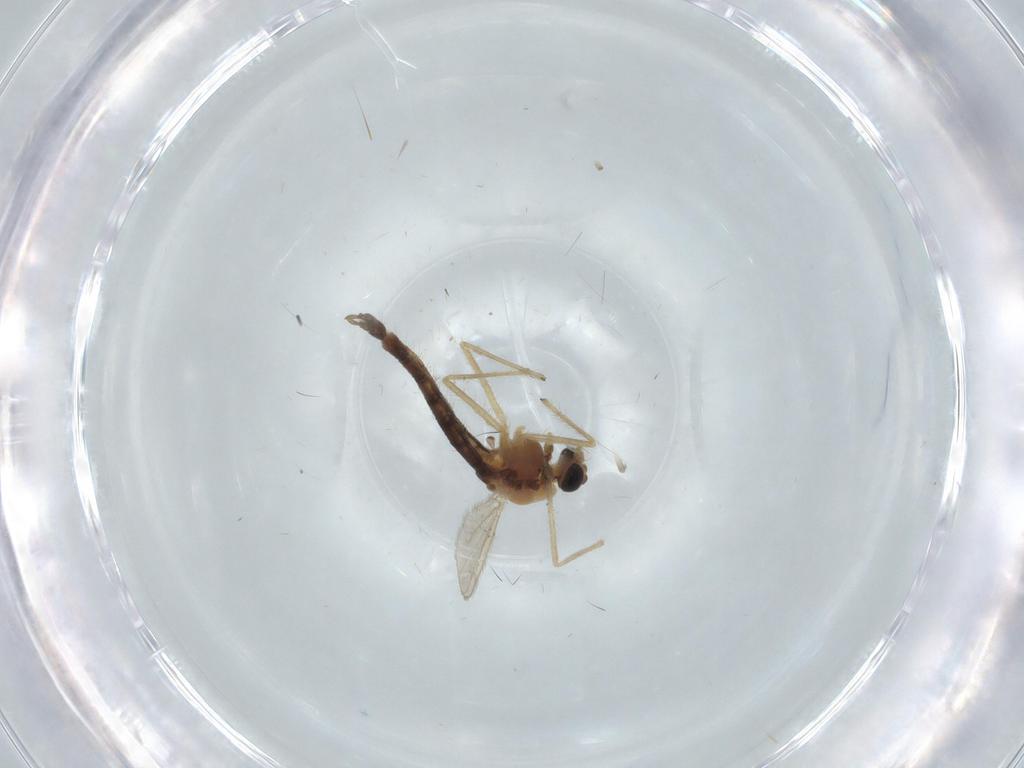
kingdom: Animalia
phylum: Arthropoda
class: Insecta
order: Diptera
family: Chironomidae
